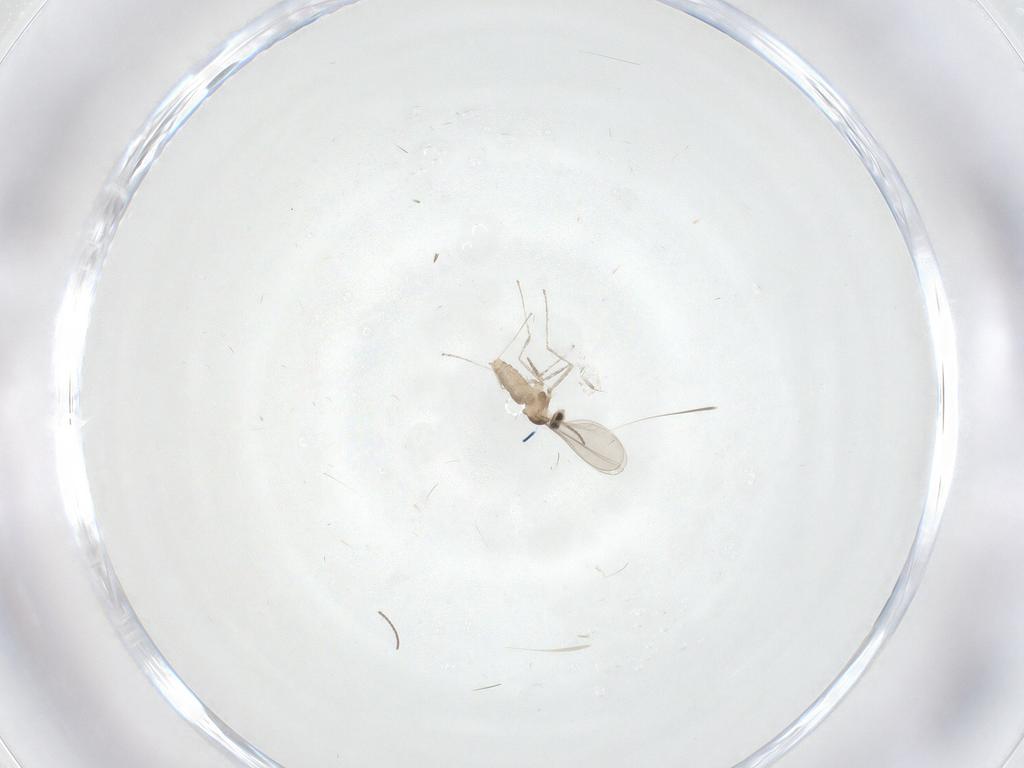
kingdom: Animalia
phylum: Arthropoda
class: Insecta
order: Diptera
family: Cecidomyiidae
